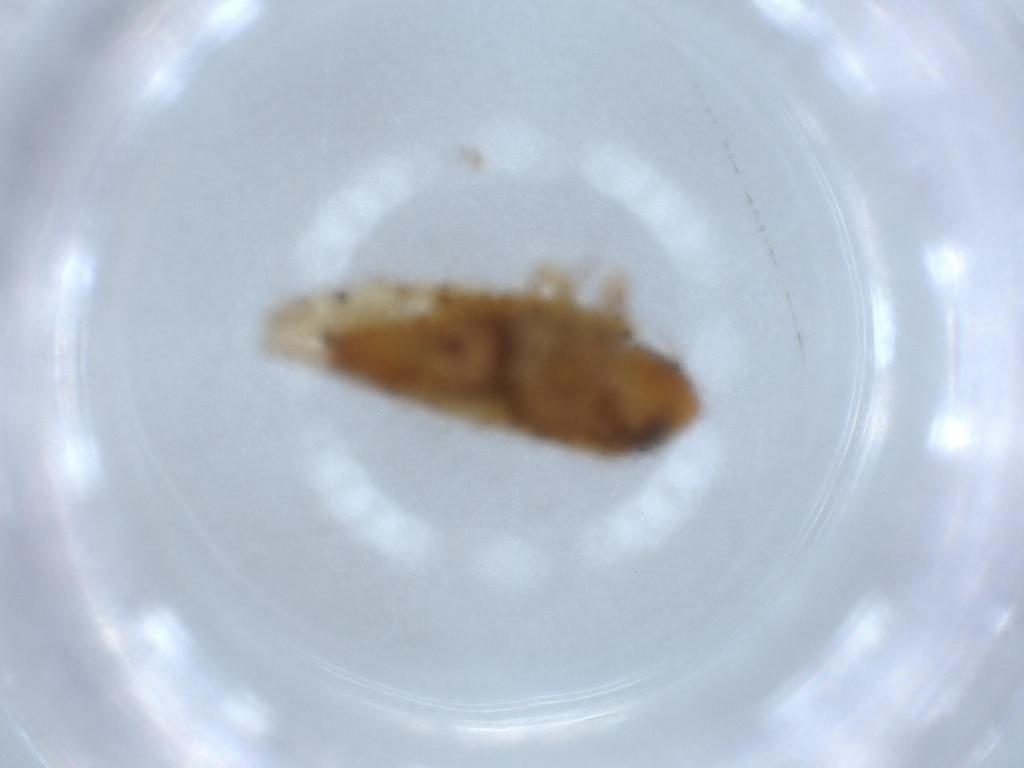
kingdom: Animalia
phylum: Arthropoda
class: Insecta
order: Hemiptera
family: Cicadellidae
